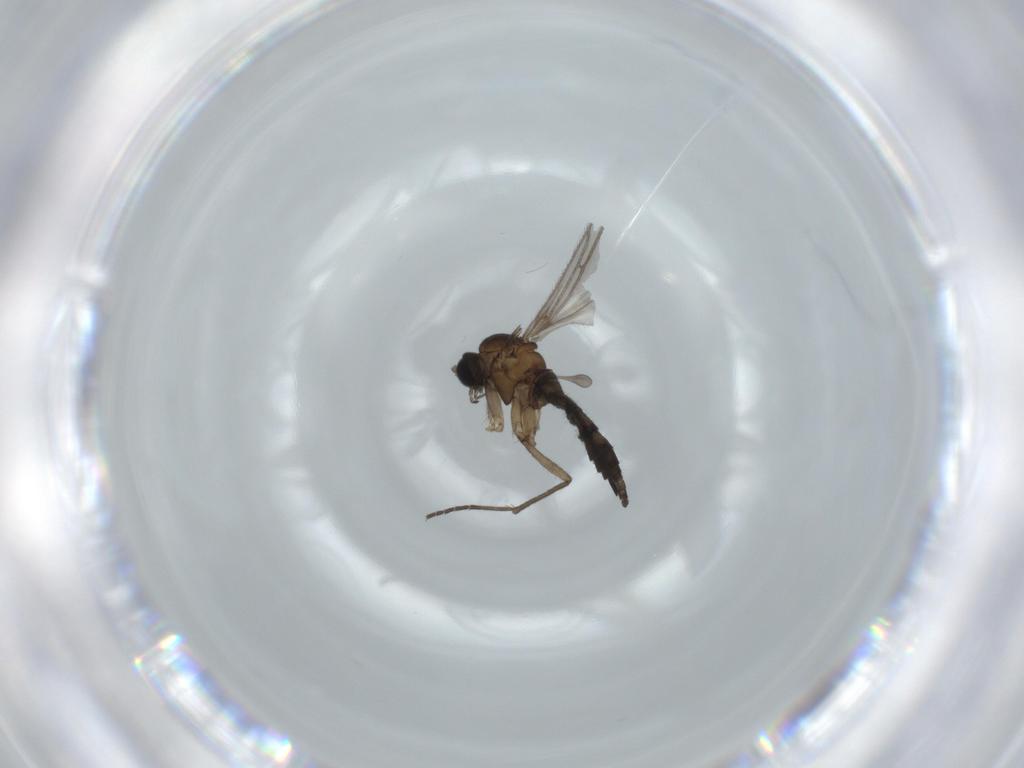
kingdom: Animalia
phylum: Arthropoda
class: Insecta
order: Diptera
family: Sciaridae
